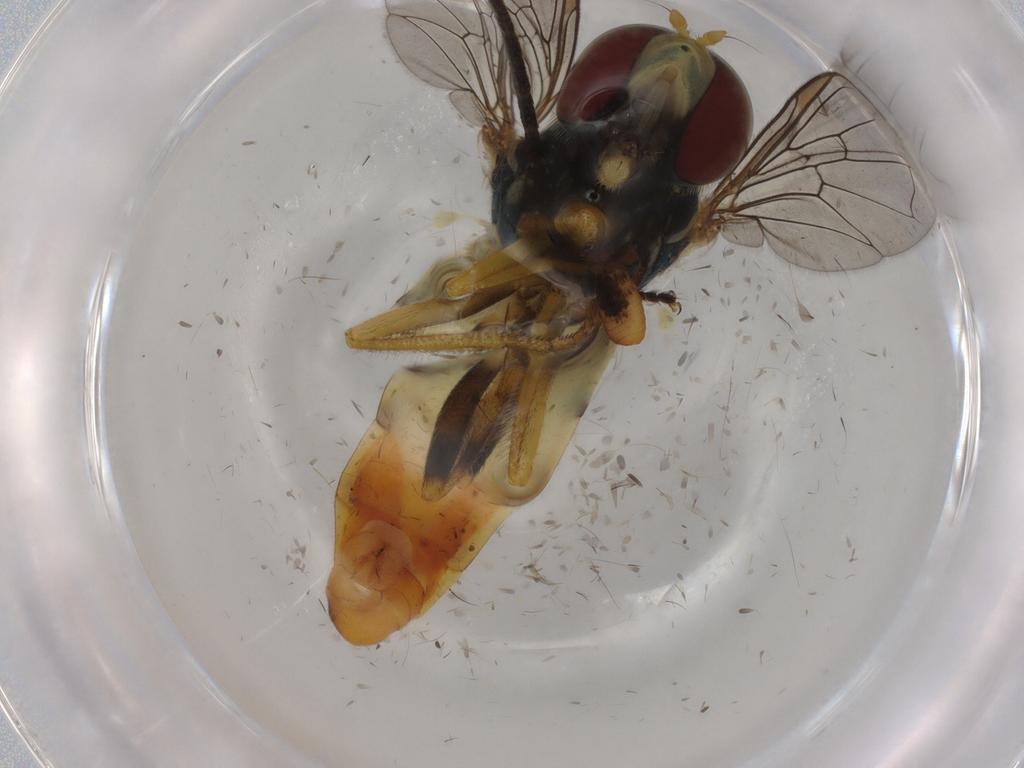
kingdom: Animalia
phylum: Arthropoda
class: Insecta
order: Diptera
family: Syrphidae
